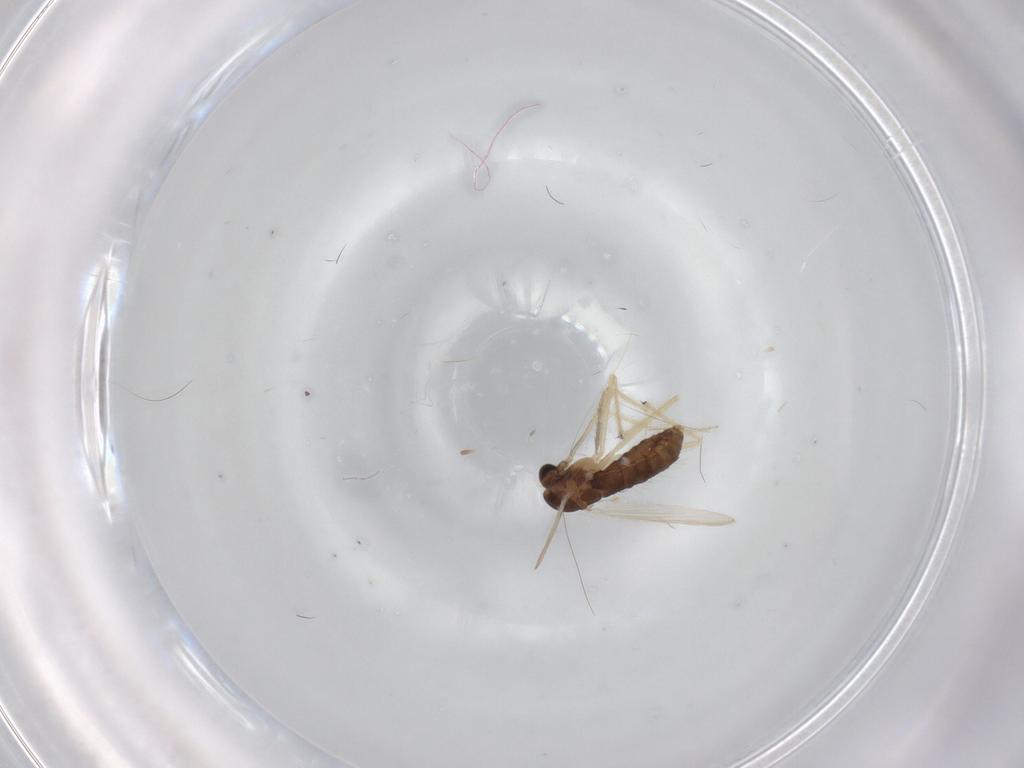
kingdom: Animalia
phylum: Arthropoda
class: Insecta
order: Diptera
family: Chironomidae
